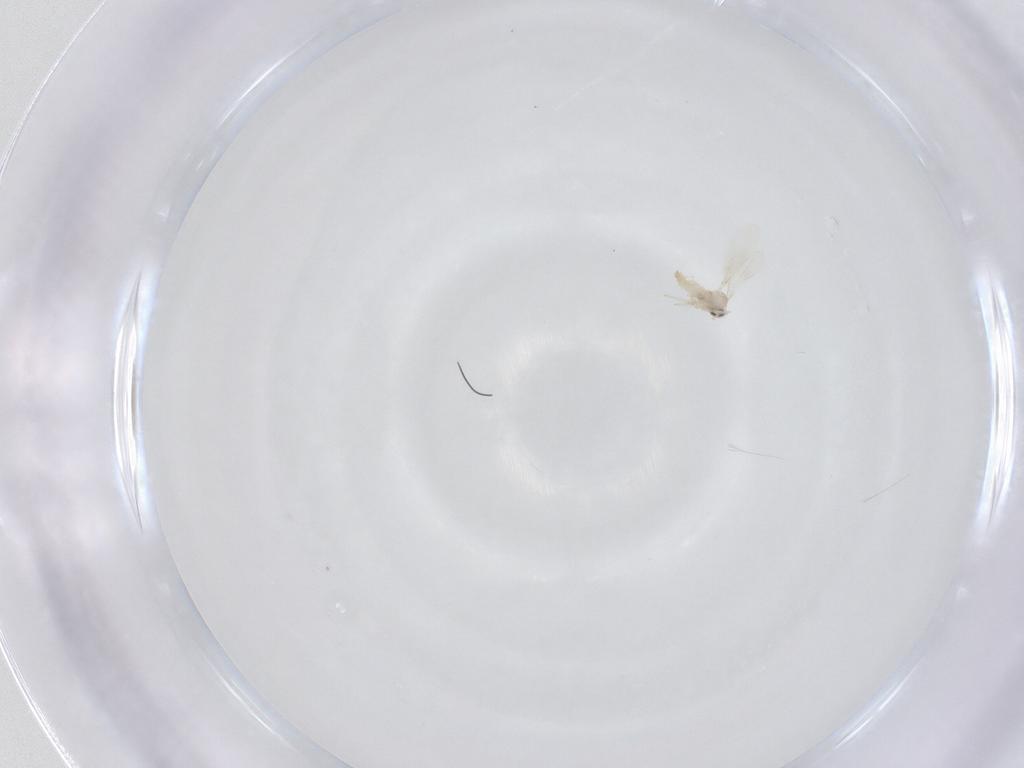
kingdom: Animalia
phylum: Arthropoda
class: Insecta
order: Diptera
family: Cecidomyiidae
